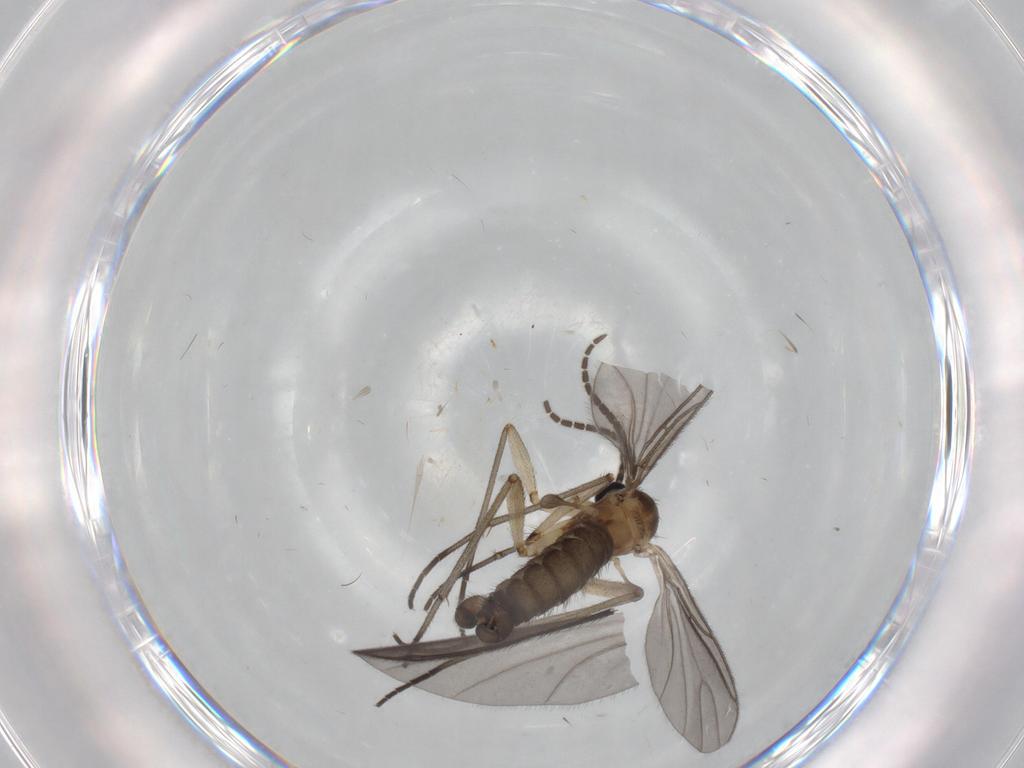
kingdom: Animalia
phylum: Arthropoda
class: Insecta
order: Diptera
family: Sciaridae
